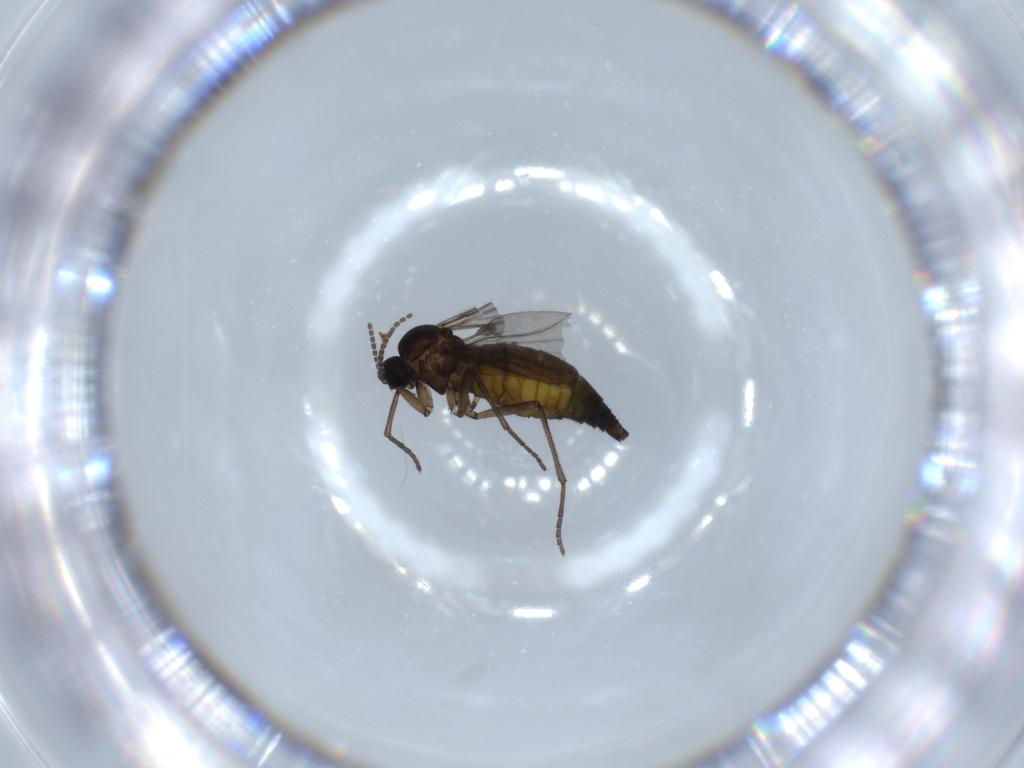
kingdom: Animalia
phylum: Arthropoda
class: Insecta
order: Diptera
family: Sciaridae
